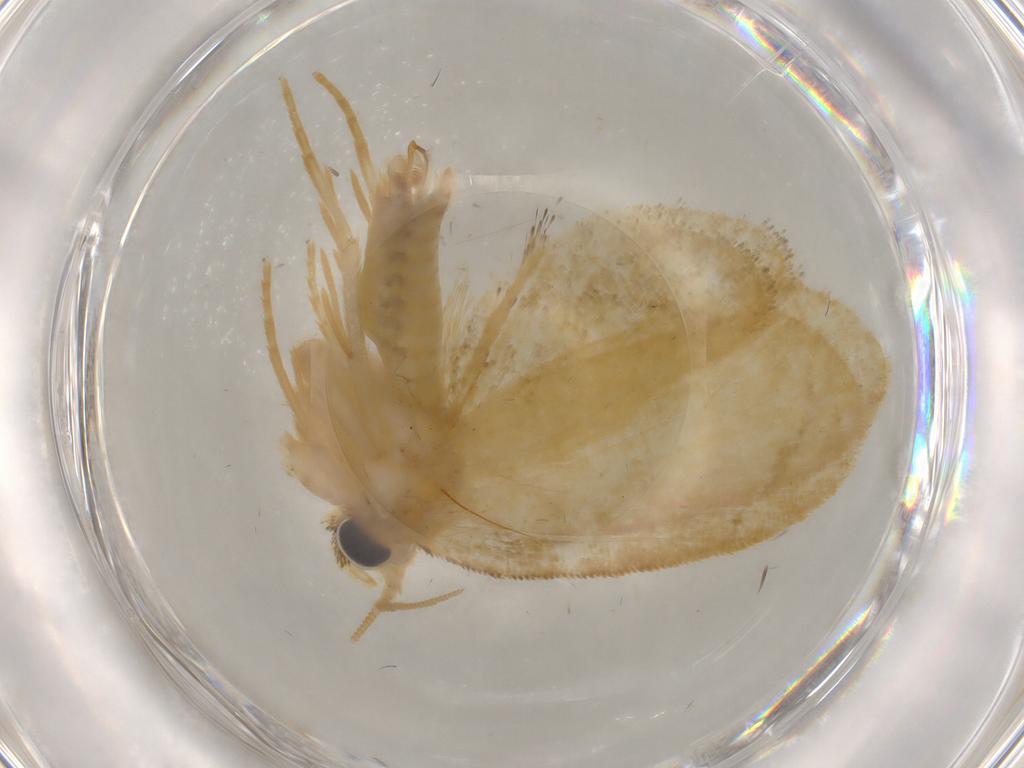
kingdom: Animalia
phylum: Arthropoda
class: Insecta
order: Lepidoptera
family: Psychidae
